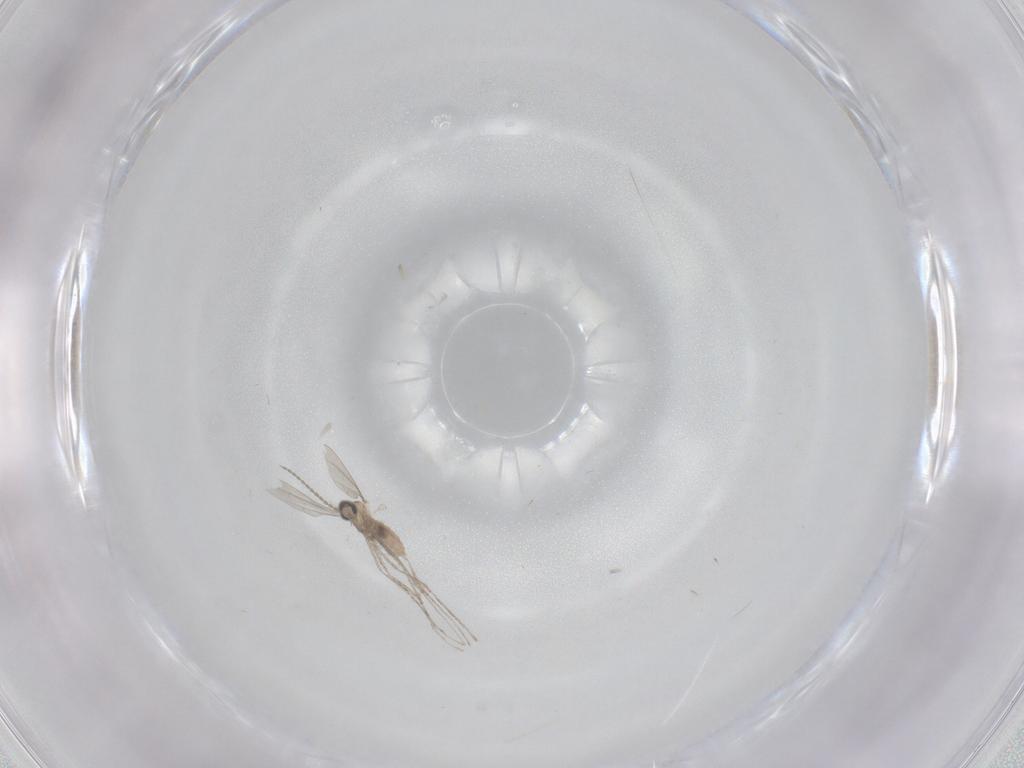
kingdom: Animalia
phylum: Arthropoda
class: Insecta
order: Diptera
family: Cecidomyiidae
